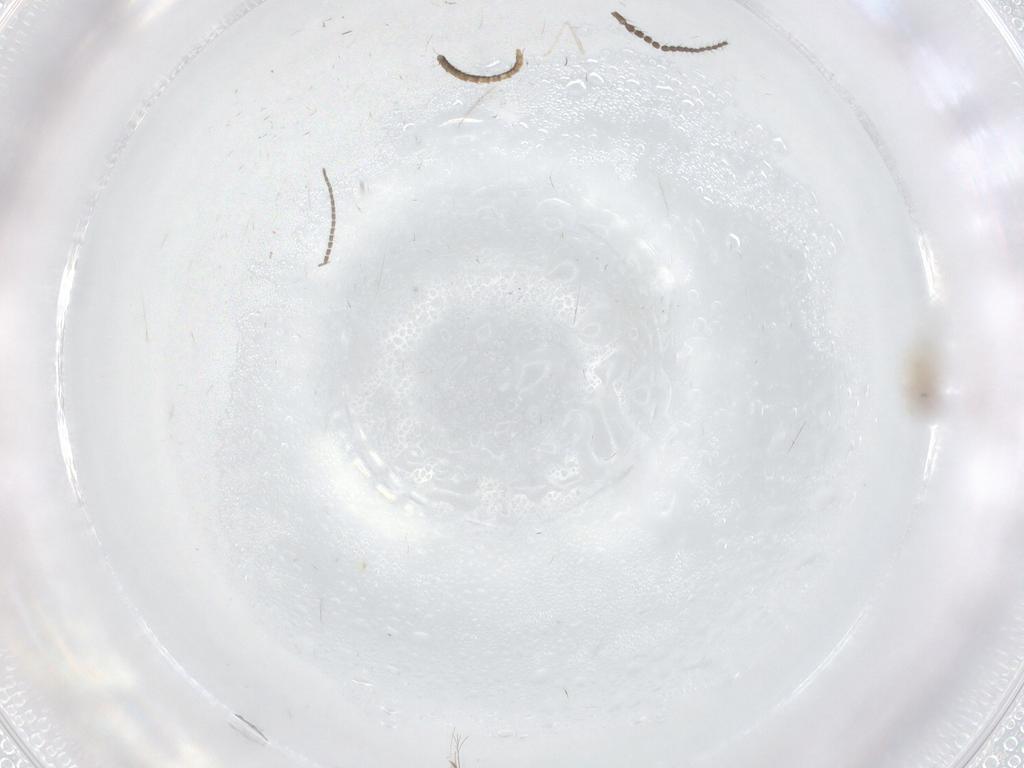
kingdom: Animalia
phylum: Arthropoda
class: Insecta
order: Diptera
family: Cecidomyiidae
